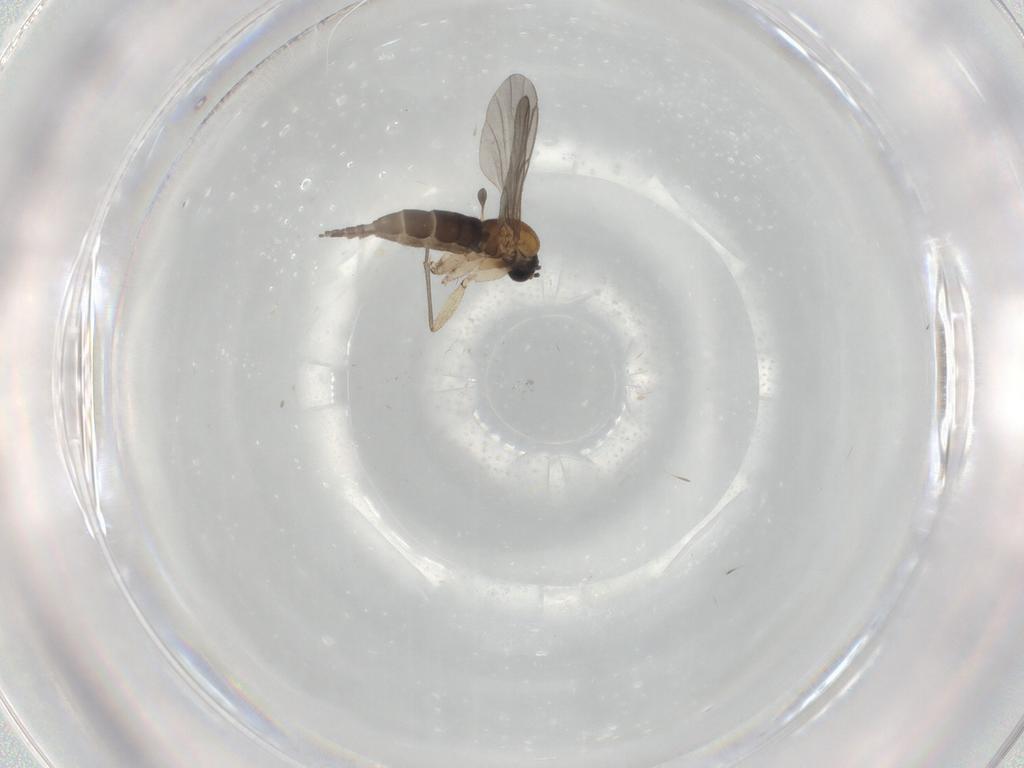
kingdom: Animalia
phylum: Arthropoda
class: Insecta
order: Diptera
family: Sciaridae
